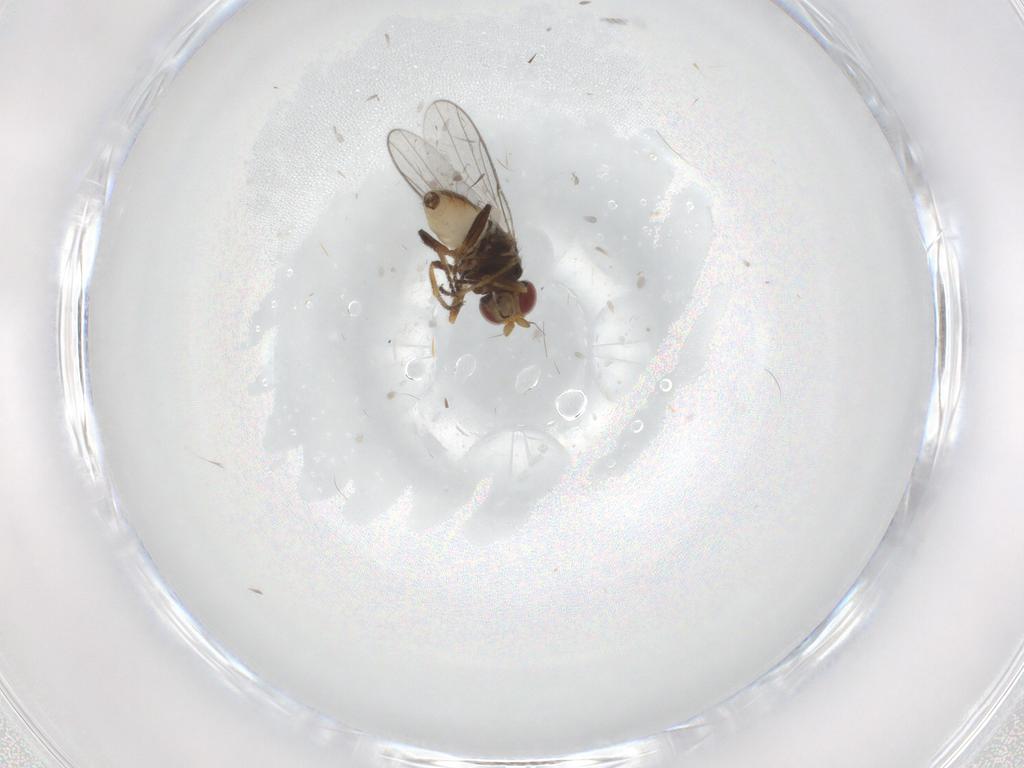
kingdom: Animalia
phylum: Arthropoda
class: Insecta
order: Diptera
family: Chloropidae
